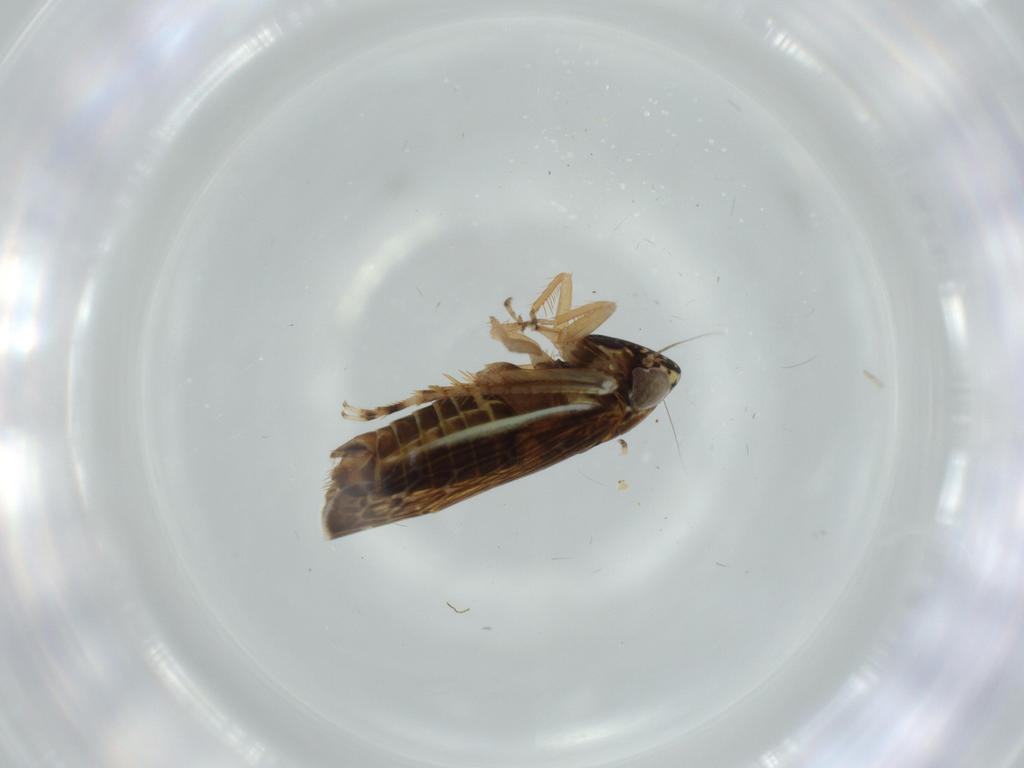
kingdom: Animalia
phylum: Arthropoda
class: Insecta
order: Hemiptera
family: Cicadellidae
